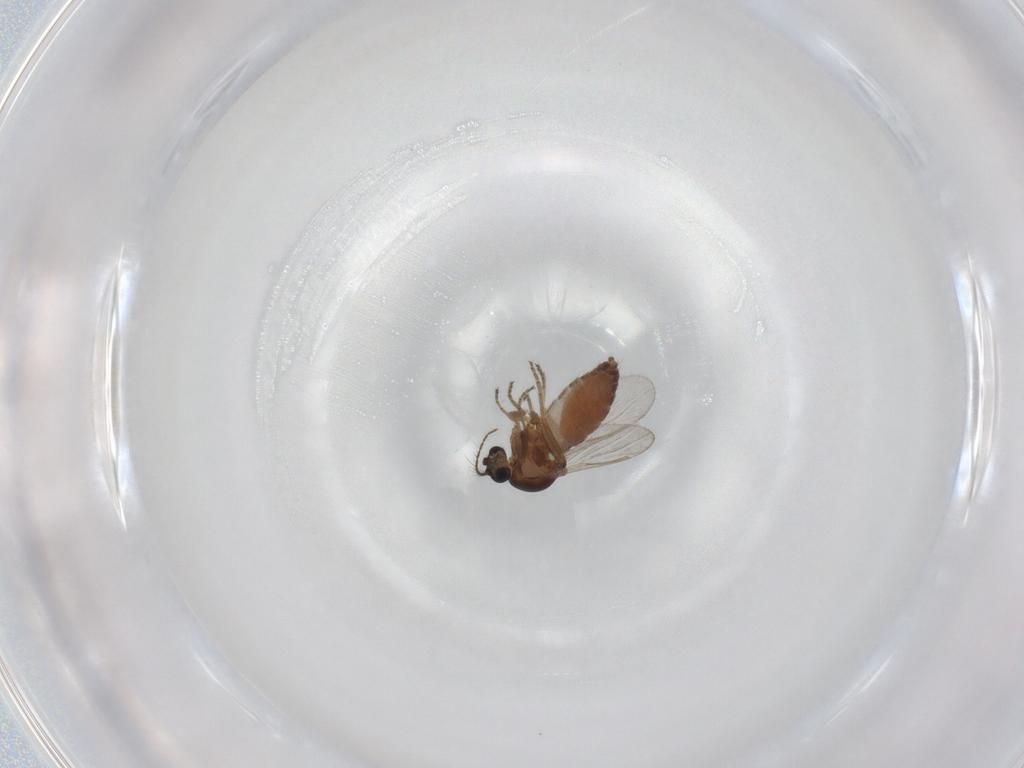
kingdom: Animalia
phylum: Arthropoda
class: Insecta
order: Diptera
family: Ceratopogonidae
